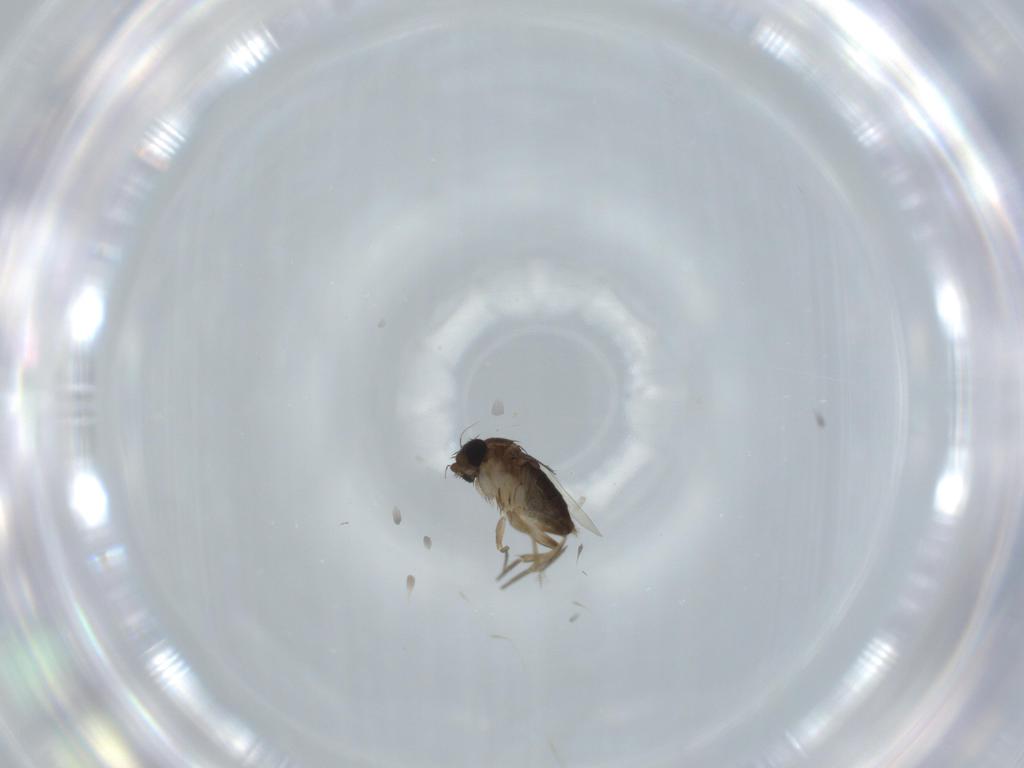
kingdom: Animalia
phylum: Arthropoda
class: Insecta
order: Diptera
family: Phoridae
